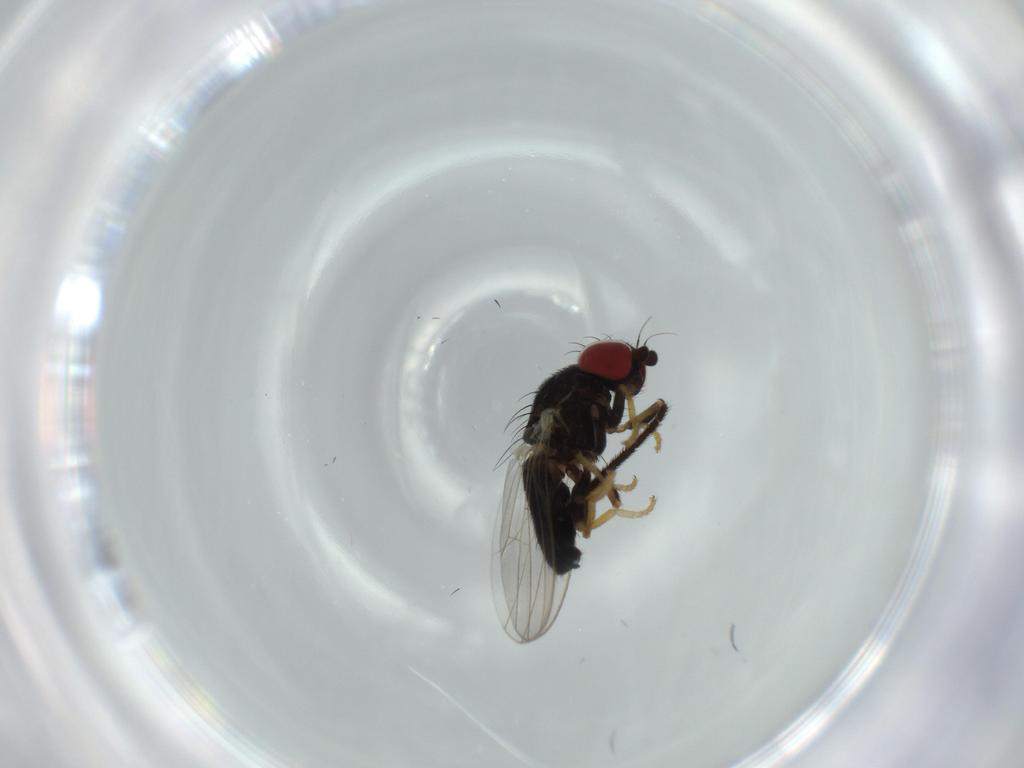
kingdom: Animalia
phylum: Arthropoda
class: Insecta
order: Diptera
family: Chamaemyiidae
